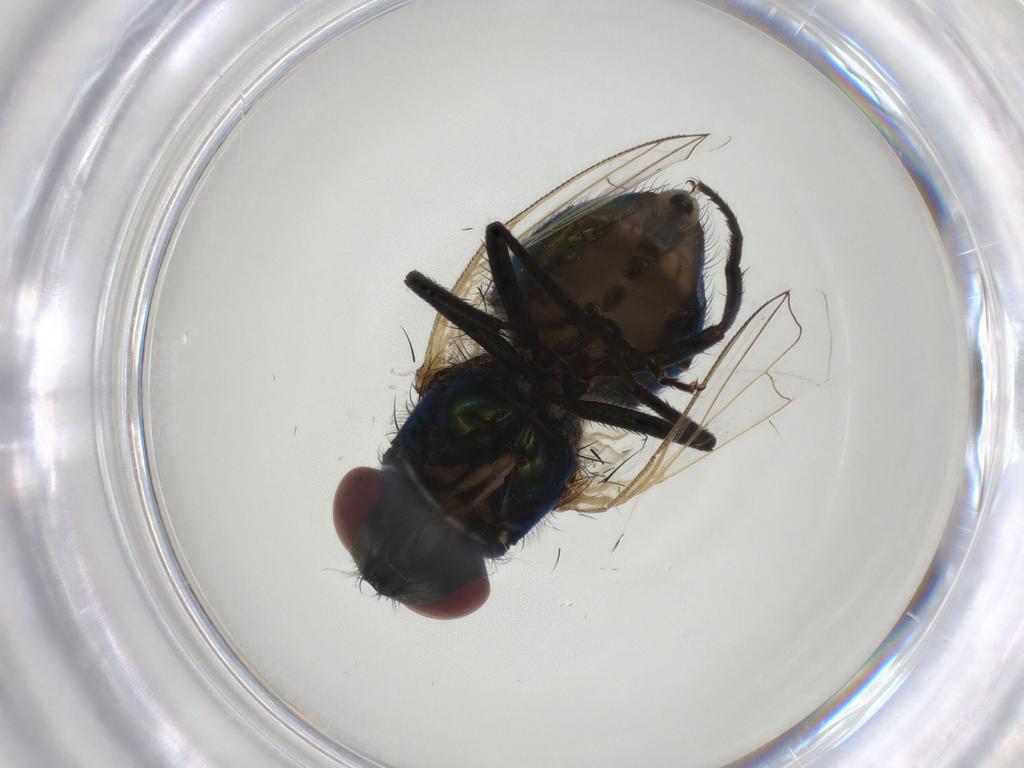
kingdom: Animalia
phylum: Arthropoda
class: Insecta
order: Diptera
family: Muscidae
